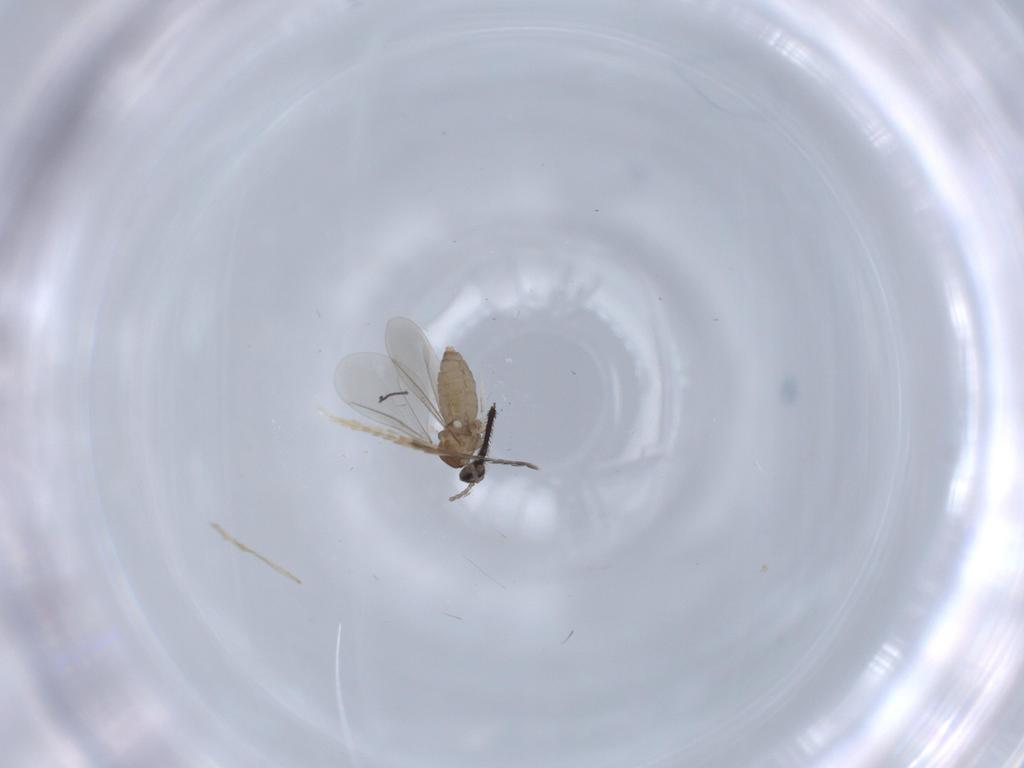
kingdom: Animalia
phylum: Arthropoda
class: Insecta
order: Diptera
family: Cecidomyiidae
